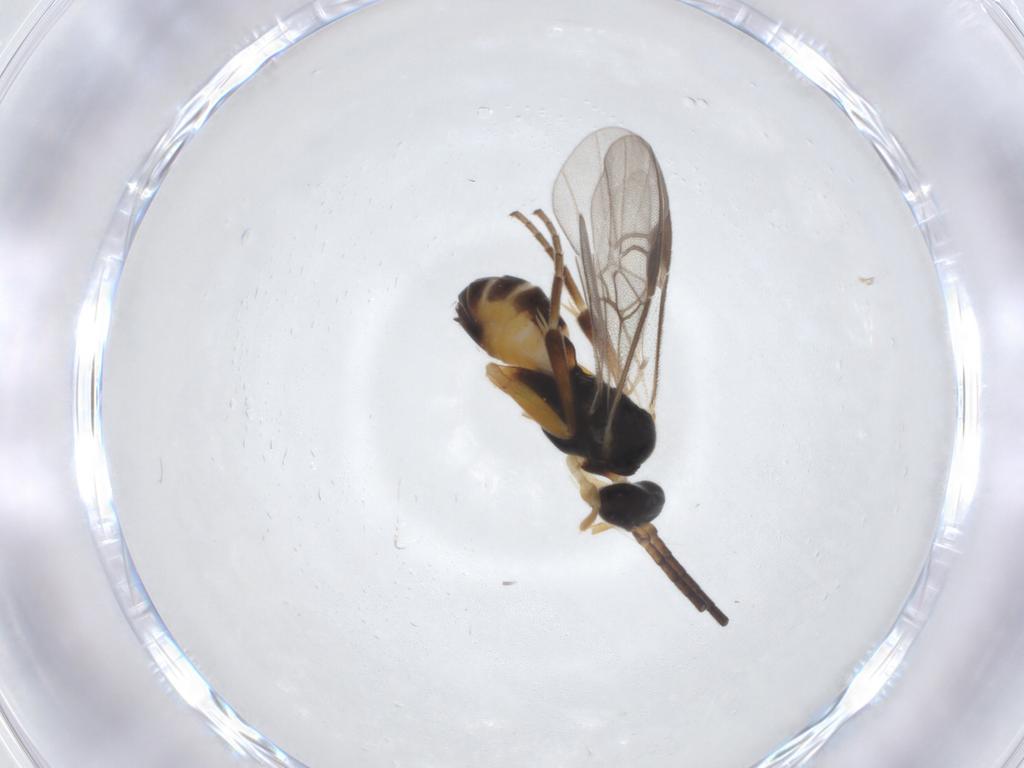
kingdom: Animalia
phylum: Arthropoda
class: Insecta
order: Hymenoptera
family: Braconidae
